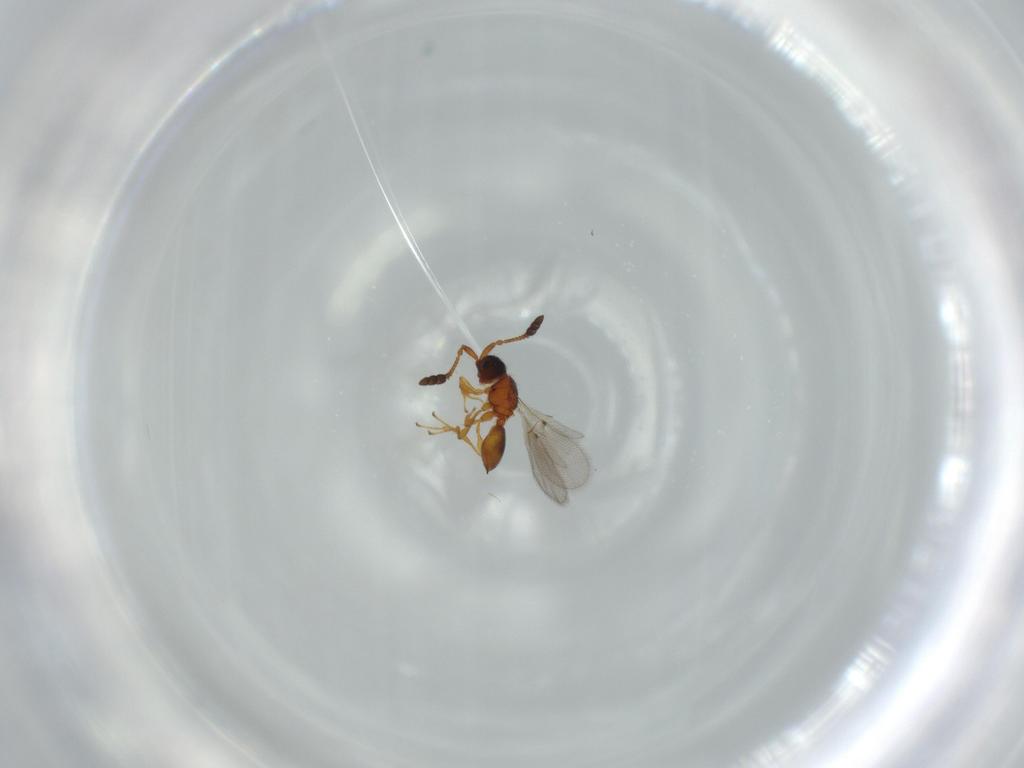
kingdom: Animalia
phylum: Arthropoda
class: Insecta
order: Hymenoptera
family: Diapriidae
